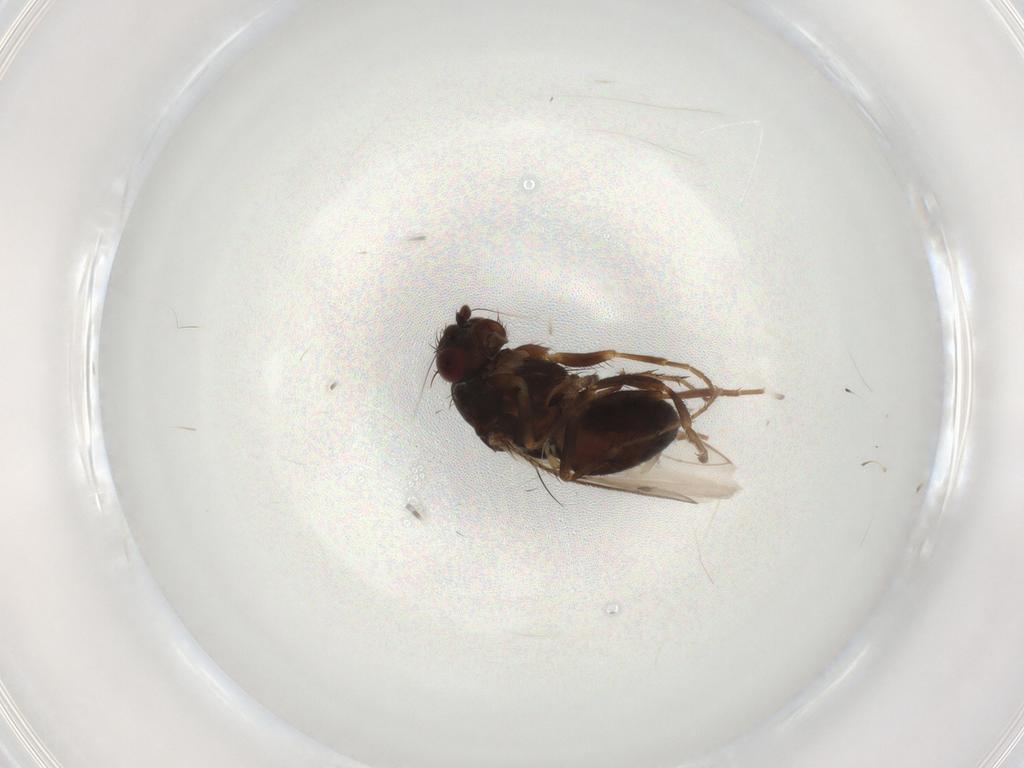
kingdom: Animalia
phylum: Arthropoda
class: Insecta
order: Diptera
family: Sphaeroceridae
